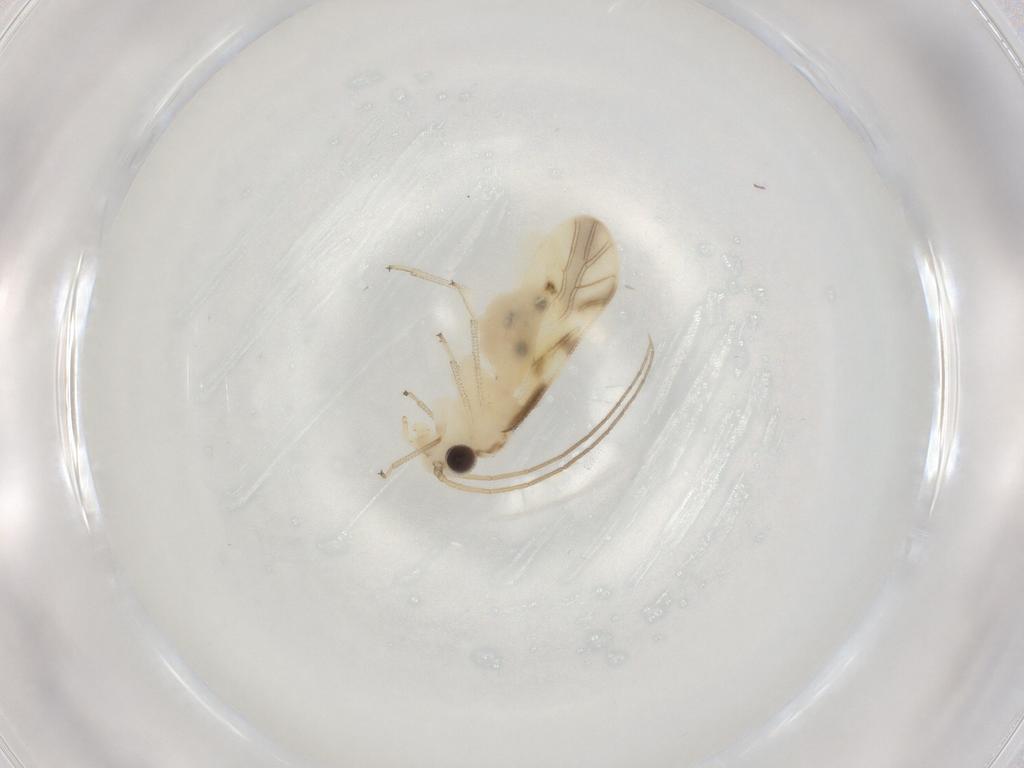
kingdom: Animalia
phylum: Arthropoda
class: Insecta
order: Psocodea
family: Caeciliusidae
